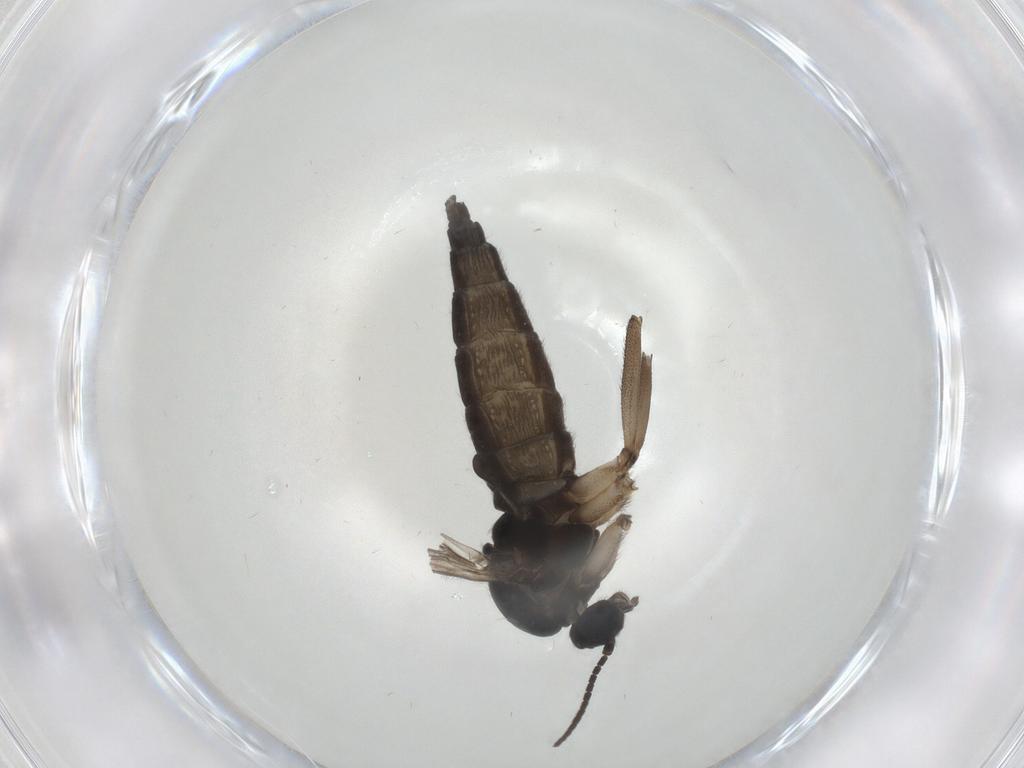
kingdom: Animalia
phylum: Arthropoda
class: Insecta
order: Diptera
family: Sciaridae
